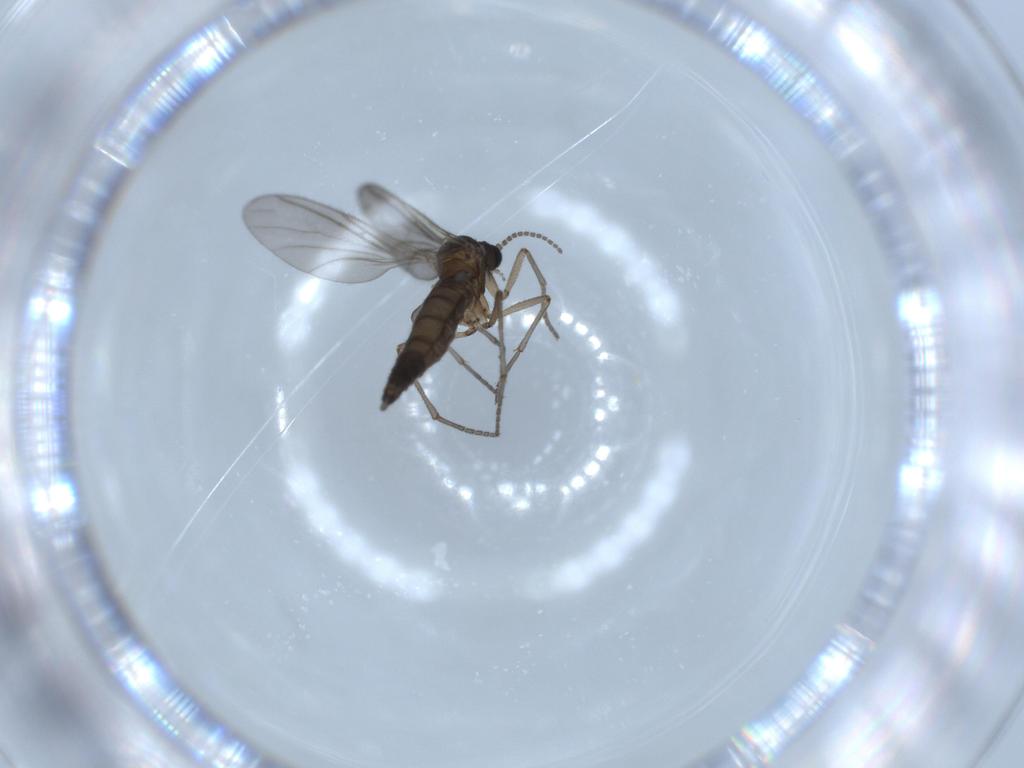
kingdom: Animalia
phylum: Arthropoda
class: Insecta
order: Diptera
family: Sciaridae
